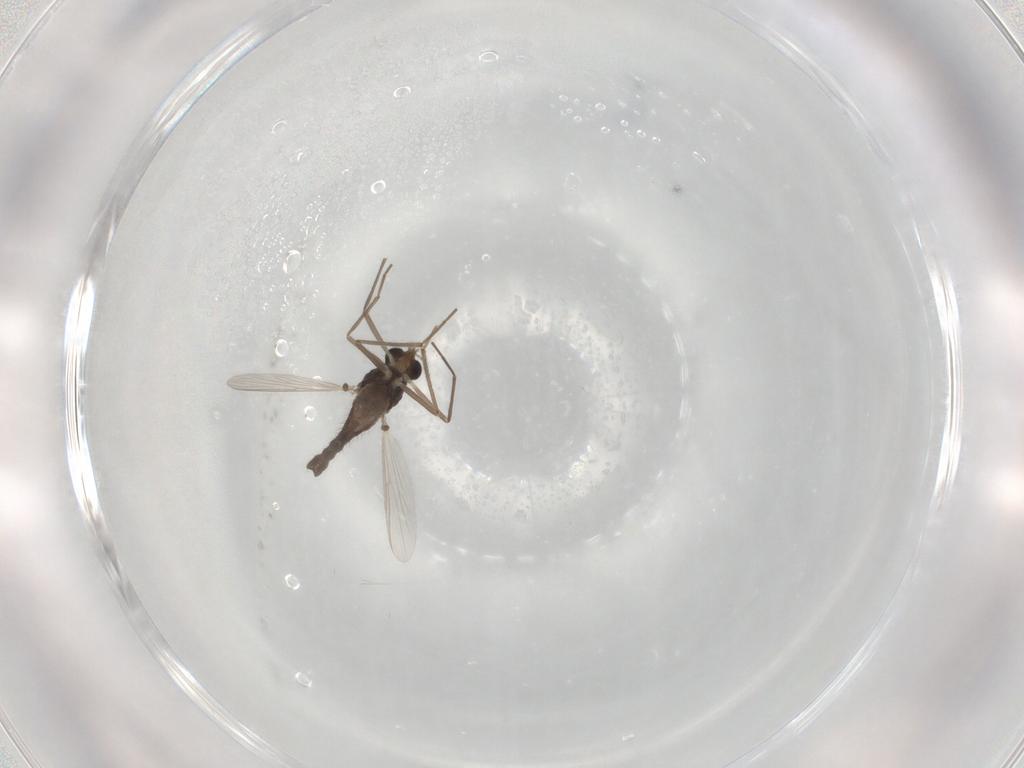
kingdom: Animalia
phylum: Arthropoda
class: Insecta
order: Diptera
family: Chironomidae
